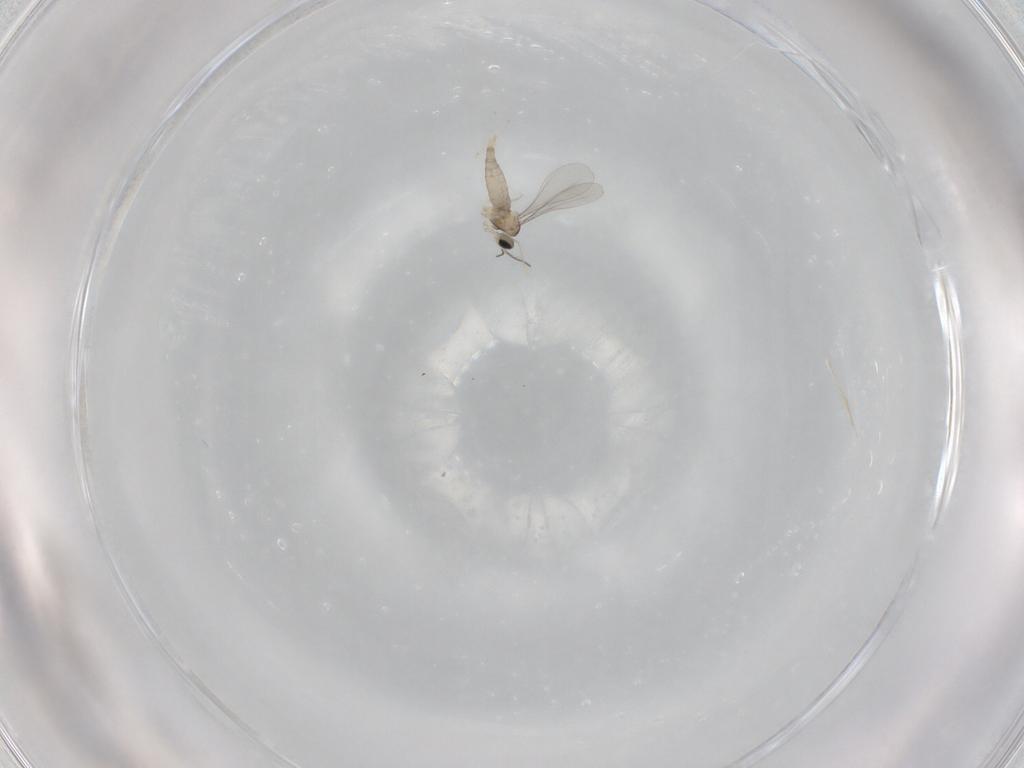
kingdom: Animalia
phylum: Arthropoda
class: Insecta
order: Diptera
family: Cecidomyiidae
